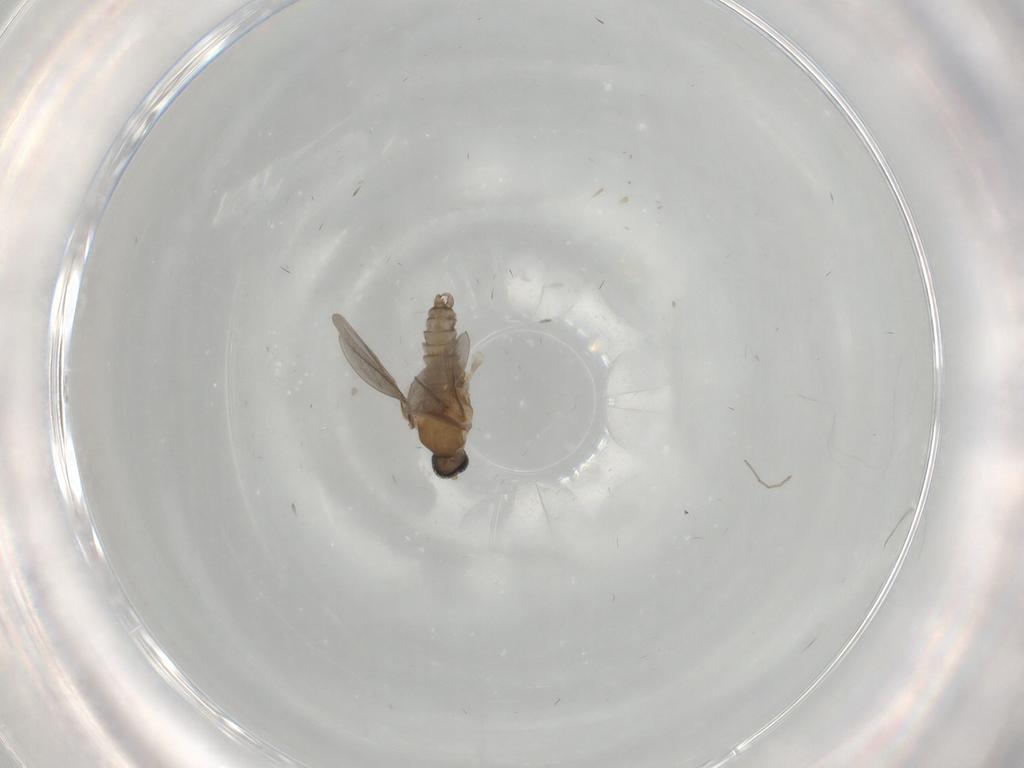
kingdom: Animalia
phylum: Arthropoda
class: Insecta
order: Diptera
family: Chironomidae
